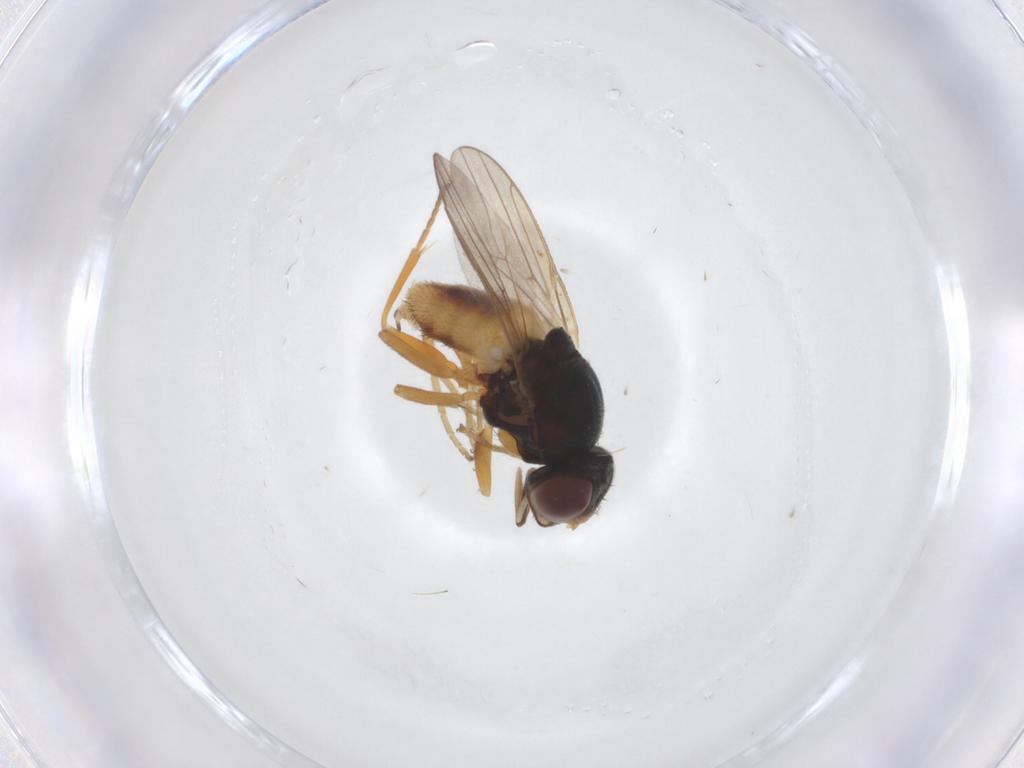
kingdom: Animalia
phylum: Arthropoda
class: Insecta
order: Diptera
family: Chloropidae
